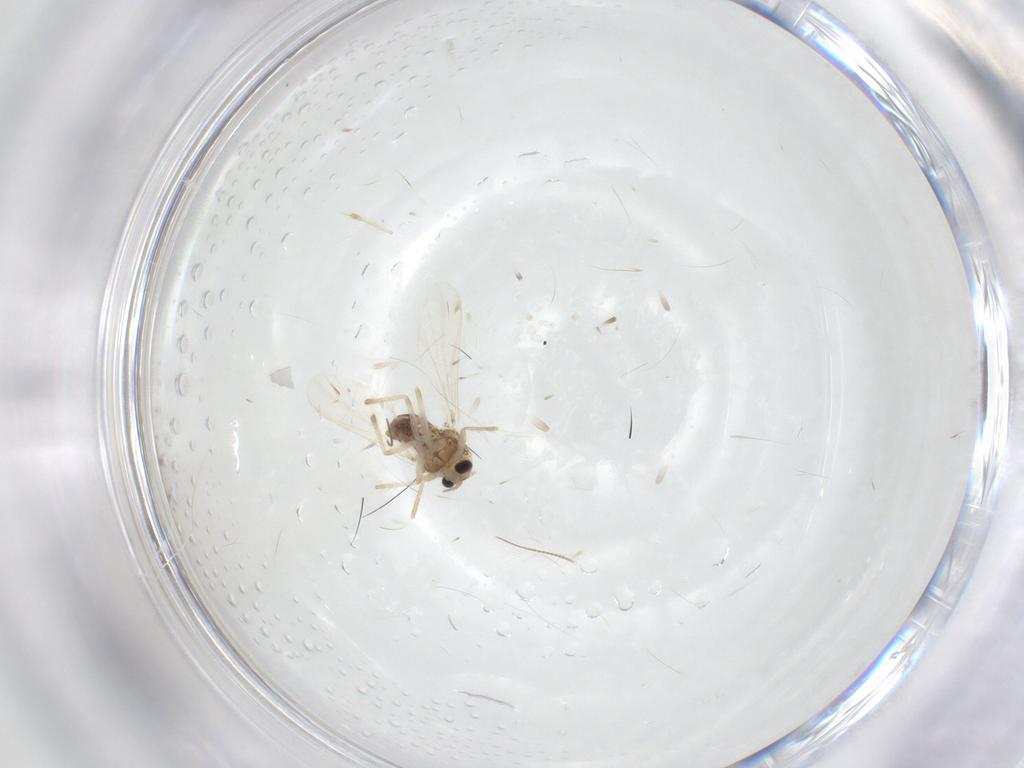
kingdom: Animalia
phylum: Arthropoda
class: Insecta
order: Diptera
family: Chironomidae
